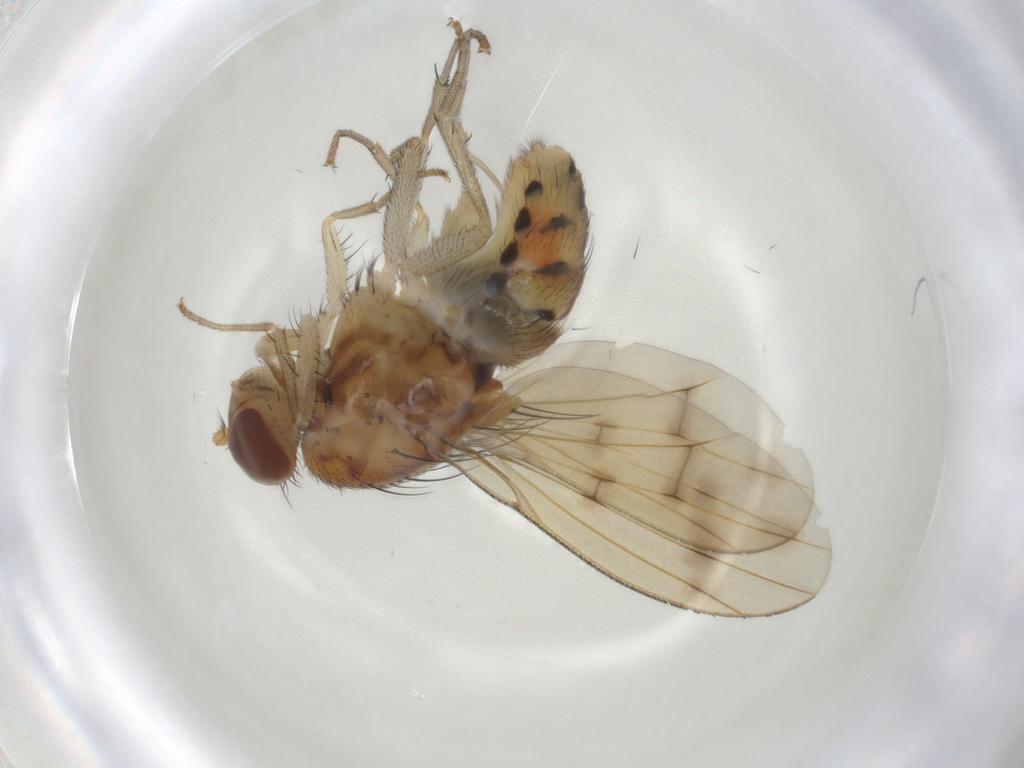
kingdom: Animalia
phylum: Arthropoda
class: Insecta
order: Diptera
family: Lauxaniidae
